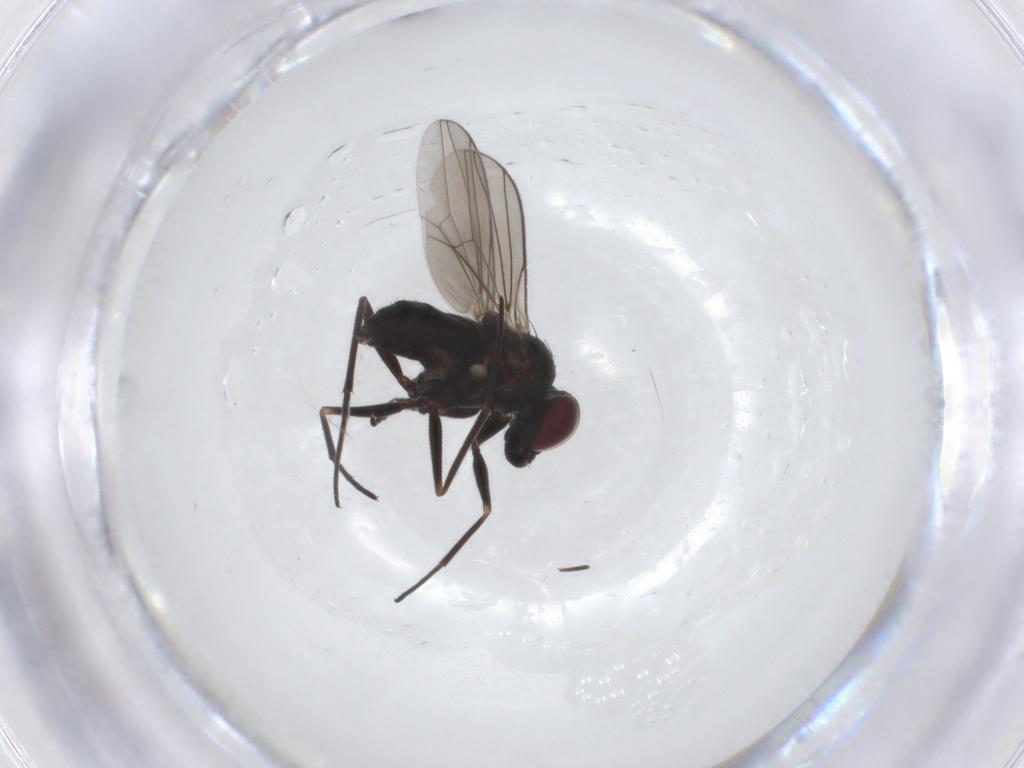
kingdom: Animalia
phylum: Arthropoda
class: Insecta
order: Diptera
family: Mycetophilidae
